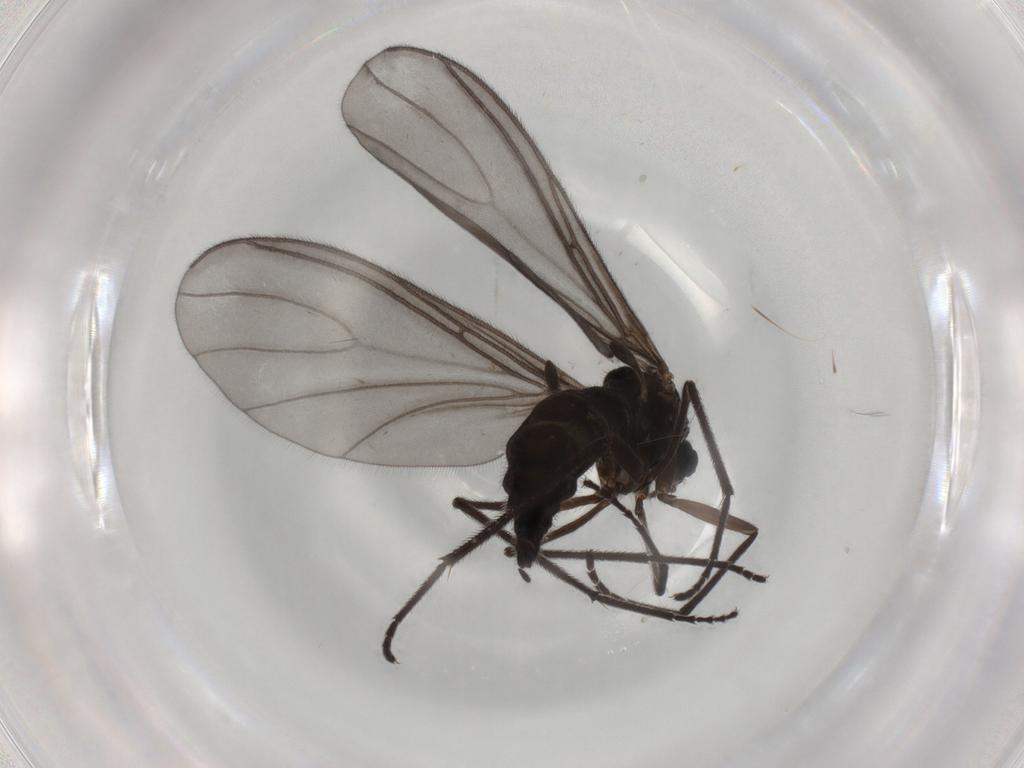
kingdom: Animalia
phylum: Arthropoda
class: Insecta
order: Diptera
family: Sciaridae
